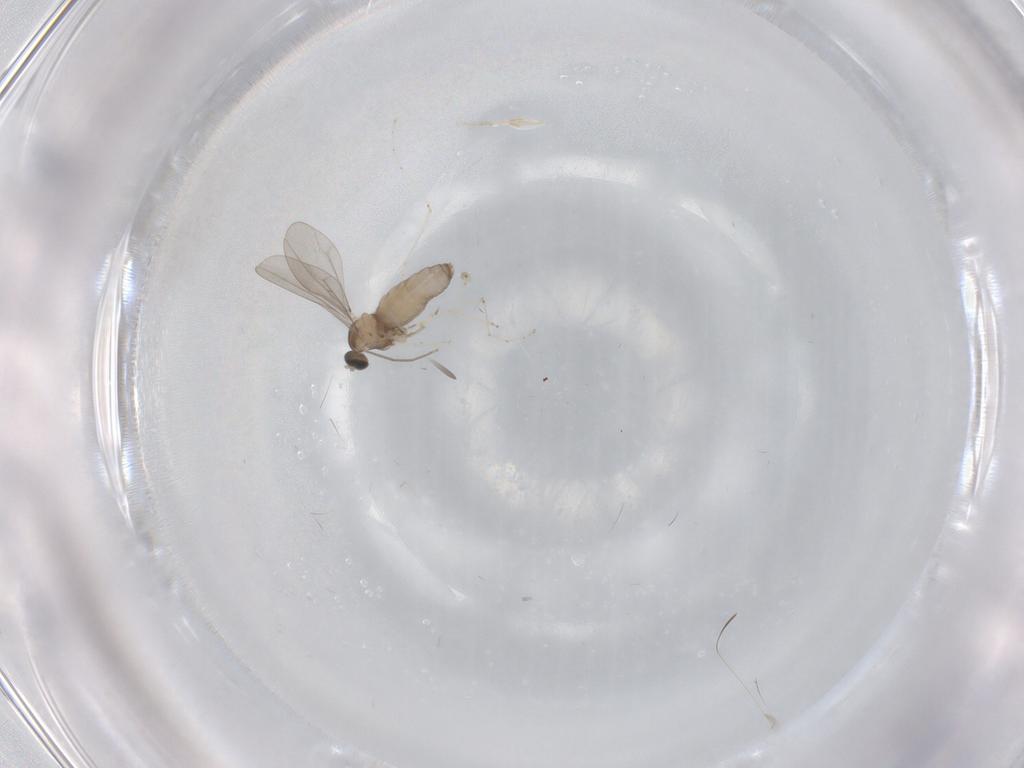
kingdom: Animalia
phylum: Arthropoda
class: Insecta
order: Diptera
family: Cecidomyiidae
